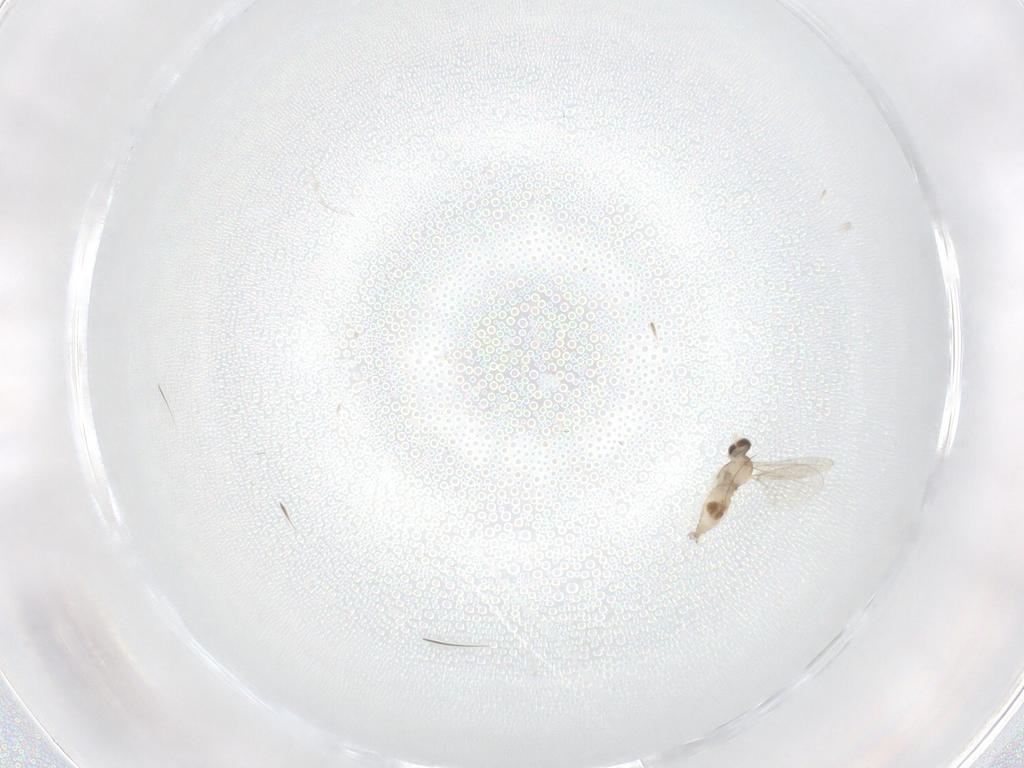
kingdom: Animalia
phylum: Arthropoda
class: Insecta
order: Diptera
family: Cecidomyiidae
